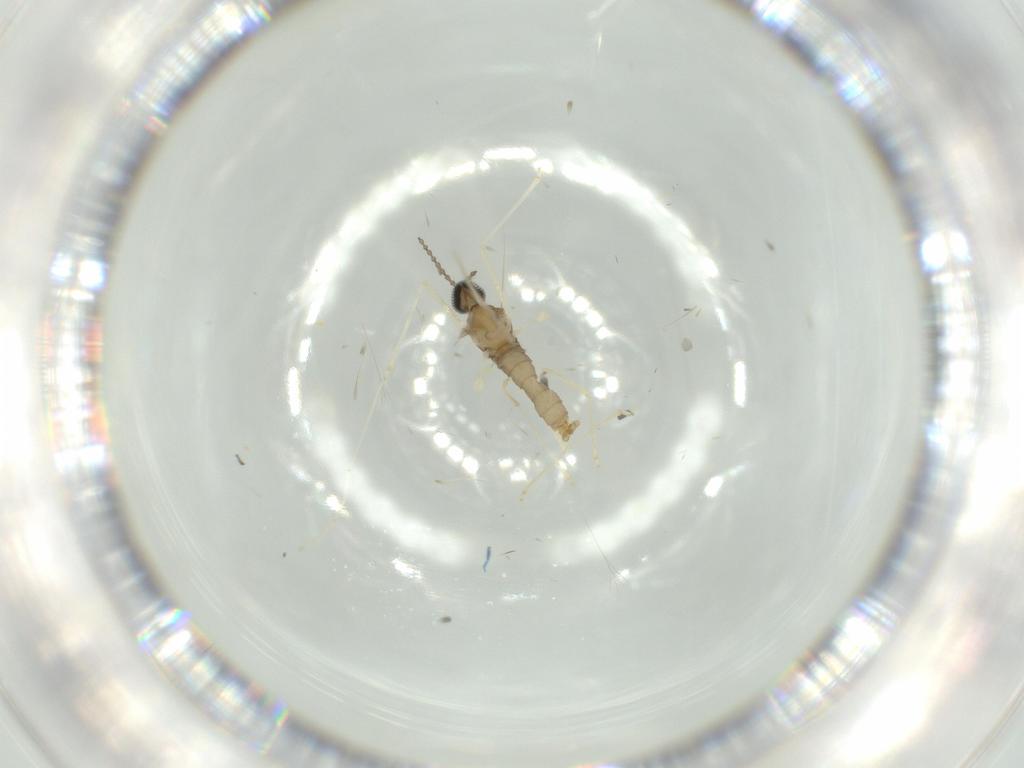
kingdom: Animalia
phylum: Arthropoda
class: Insecta
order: Diptera
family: Cecidomyiidae
